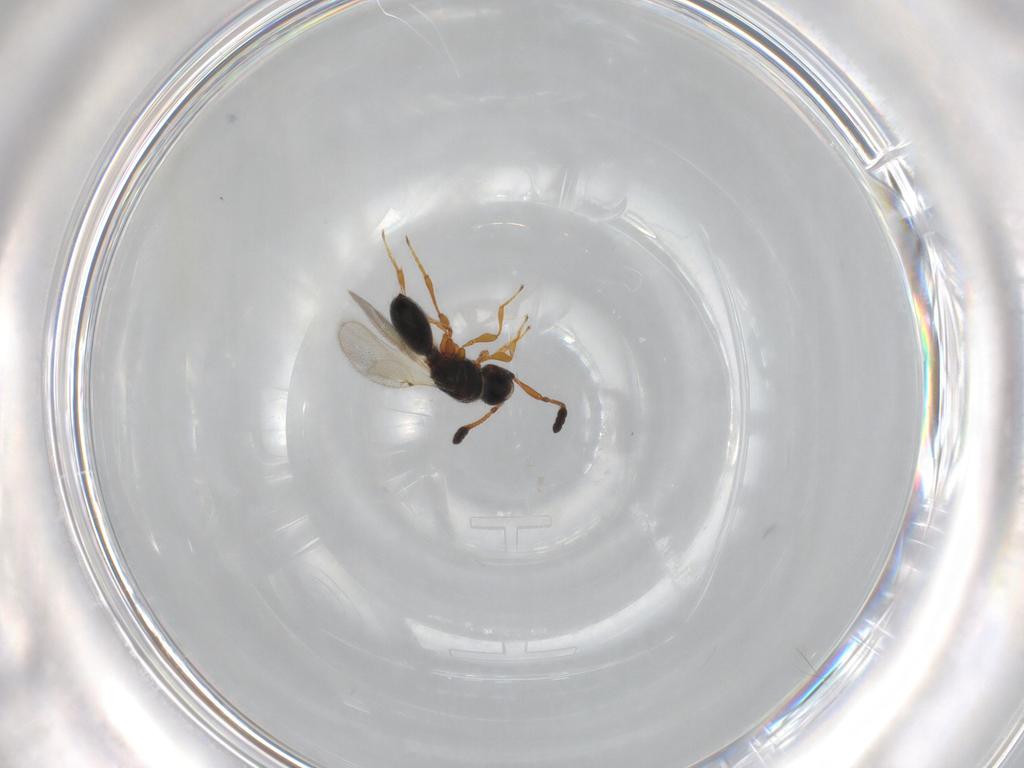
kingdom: Animalia
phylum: Arthropoda
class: Insecta
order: Hymenoptera
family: Diapriidae
